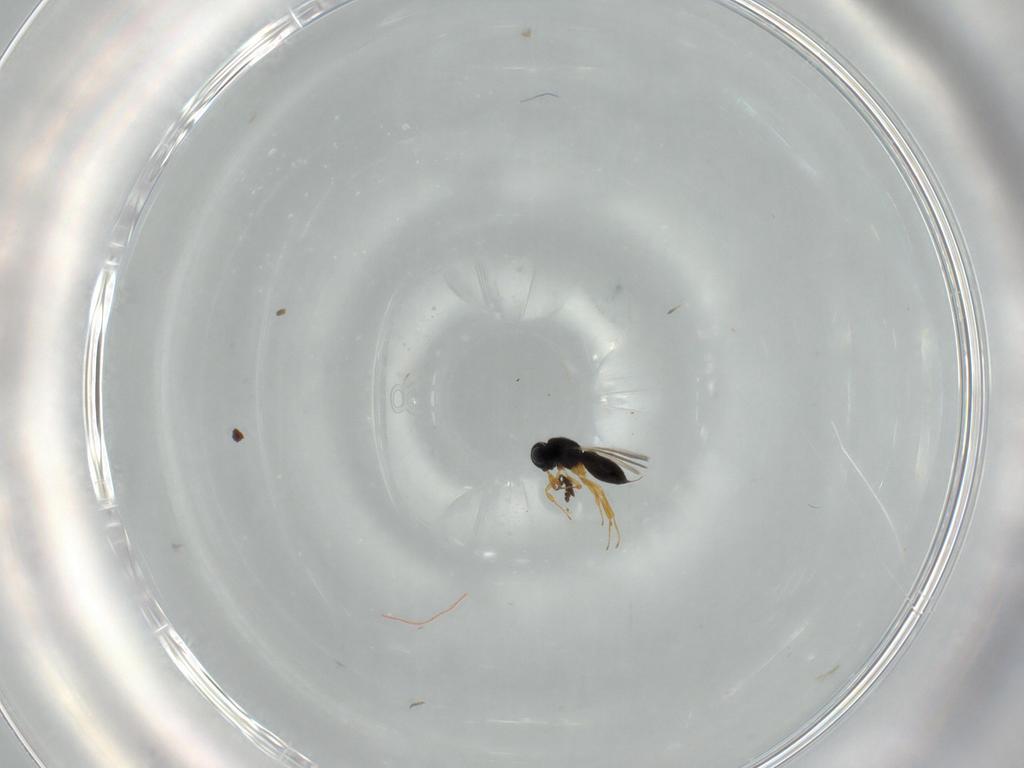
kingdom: Animalia
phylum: Arthropoda
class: Insecta
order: Hymenoptera
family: Scelionidae
